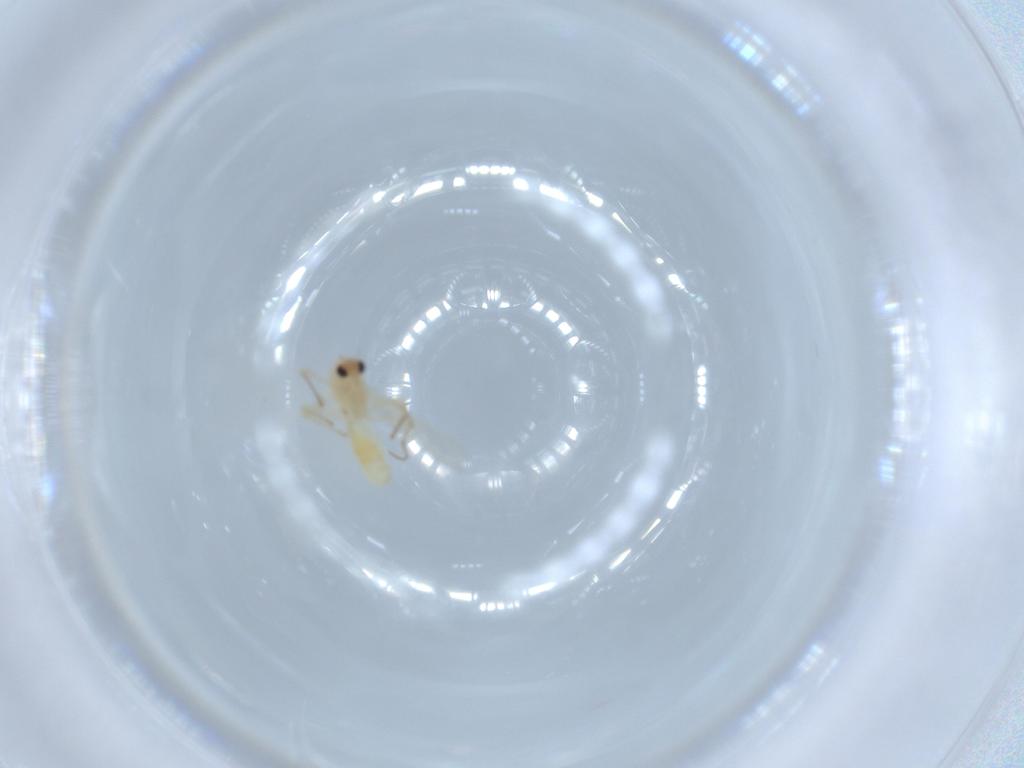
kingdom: Animalia
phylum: Arthropoda
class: Insecta
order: Diptera
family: Chironomidae
